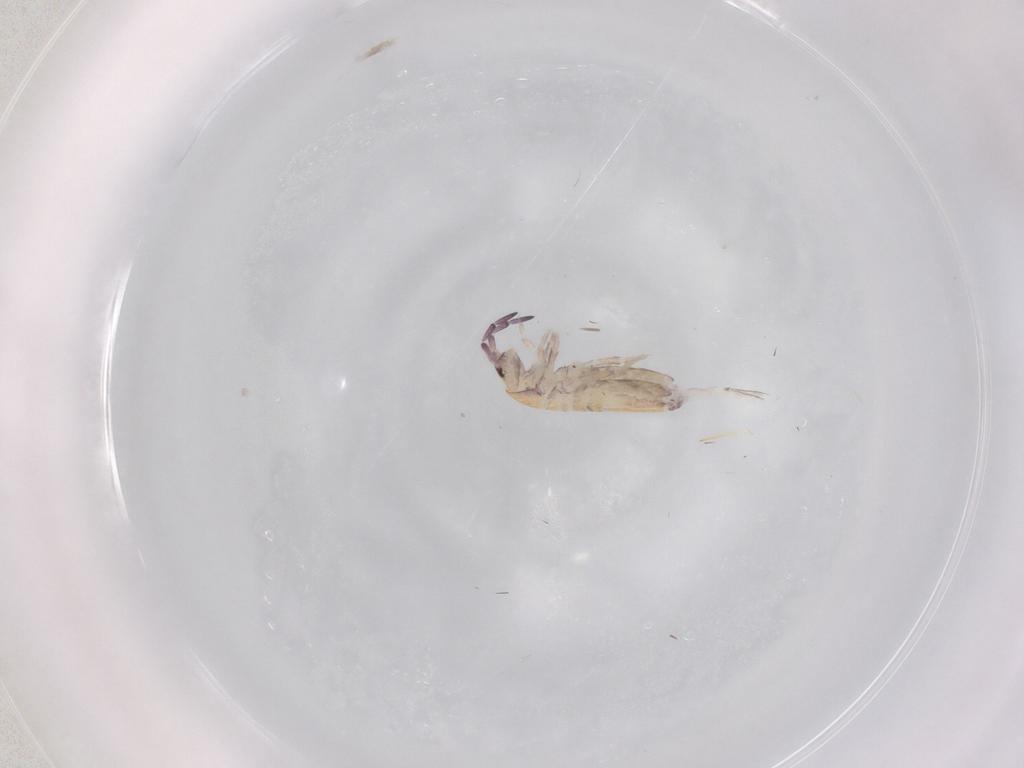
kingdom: Animalia
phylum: Arthropoda
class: Collembola
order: Entomobryomorpha
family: Entomobryidae
